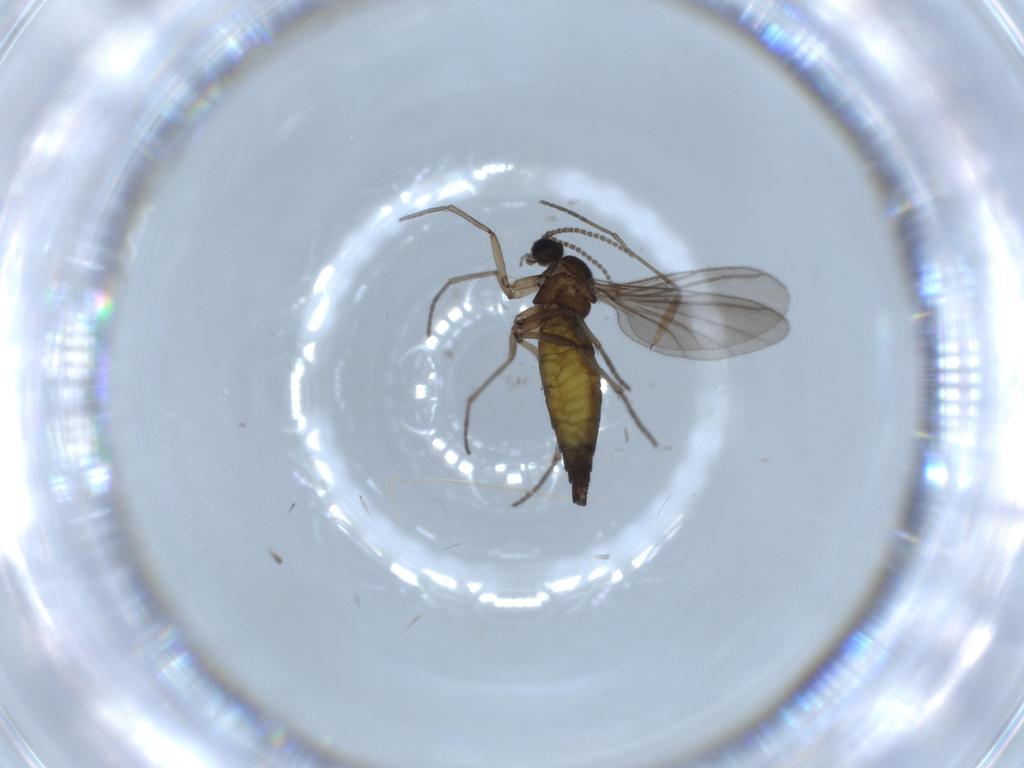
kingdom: Animalia
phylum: Arthropoda
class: Insecta
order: Diptera
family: Sciaridae
